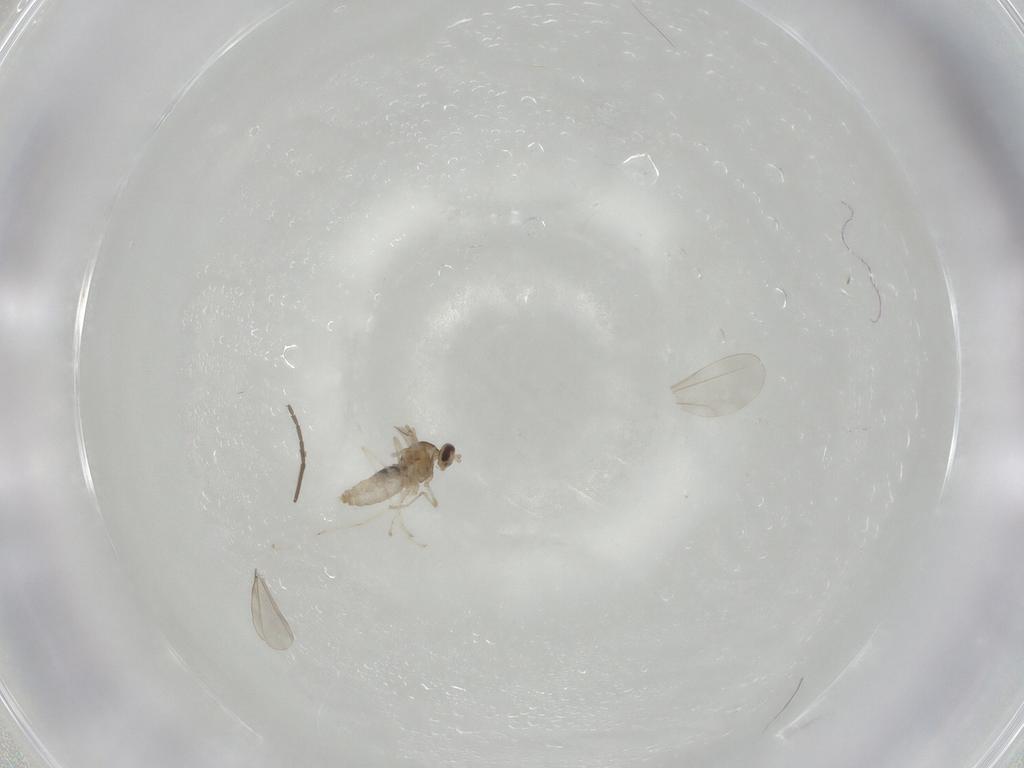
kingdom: Animalia
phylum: Arthropoda
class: Insecta
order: Diptera
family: Cecidomyiidae
